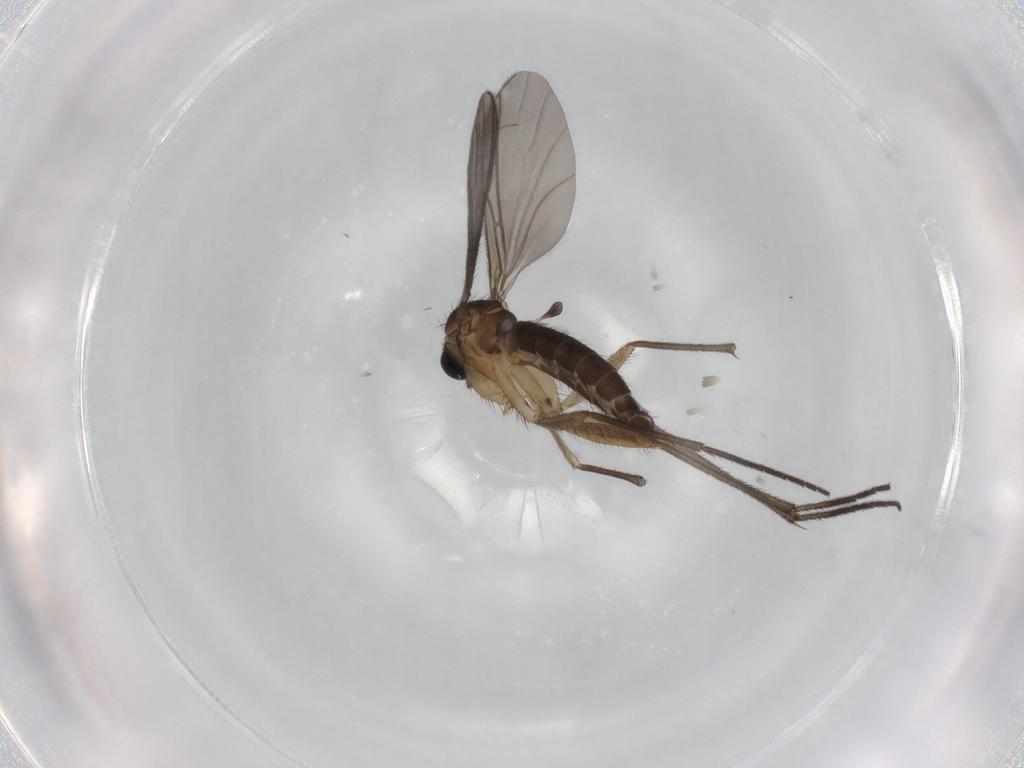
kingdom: Animalia
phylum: Arthropoda
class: Insecta
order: Diptera
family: Sciaridae
